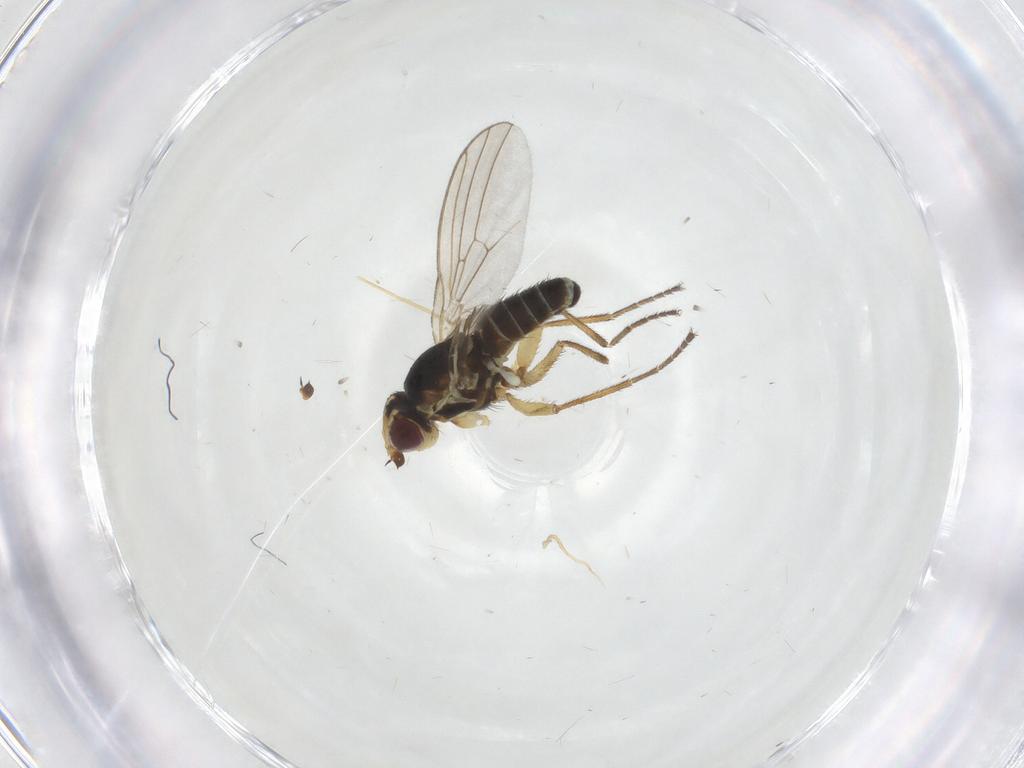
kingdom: Animalia
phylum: Arthropoda
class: Insecta
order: Diptera
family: Agromyzidae
